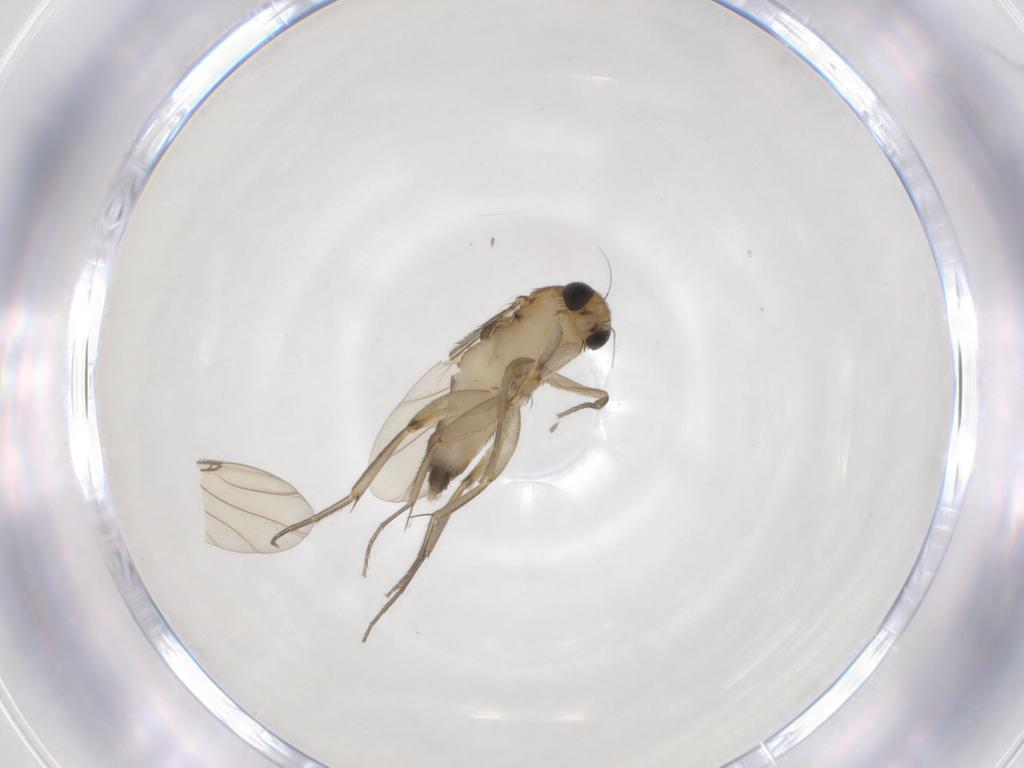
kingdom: Animalia
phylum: Arthropoda
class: Insecta
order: Diptera
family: Phoridae
